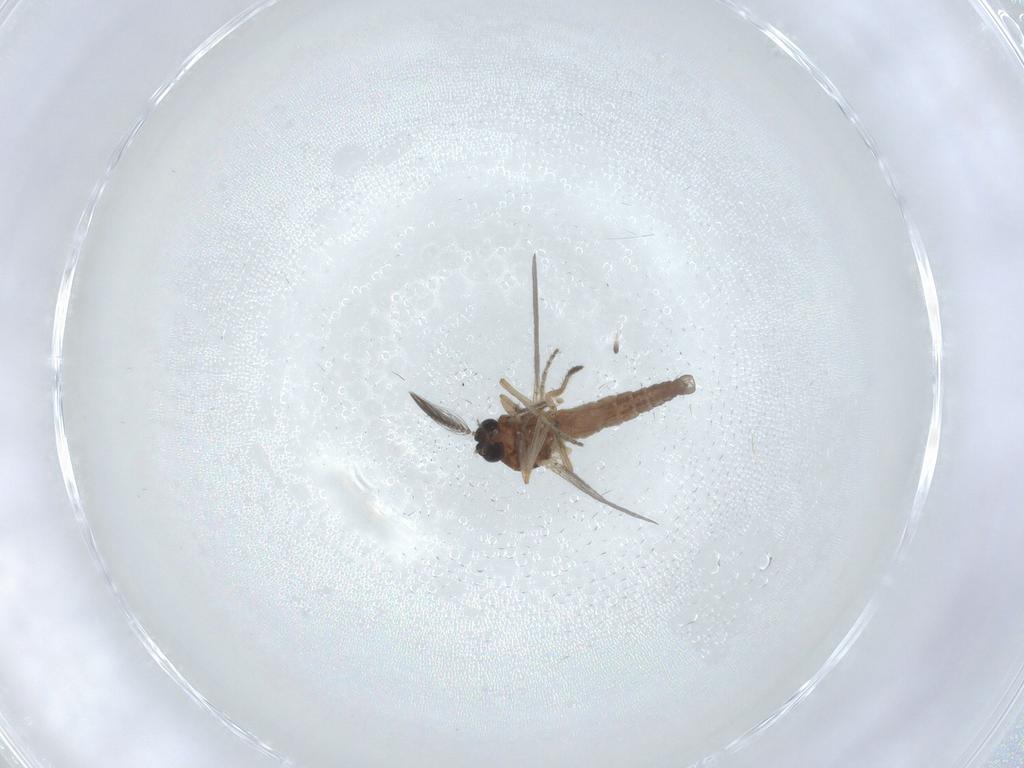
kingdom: Animalia
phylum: Arthropoda
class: Insecta
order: Diptera
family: Ceratopogonidae
